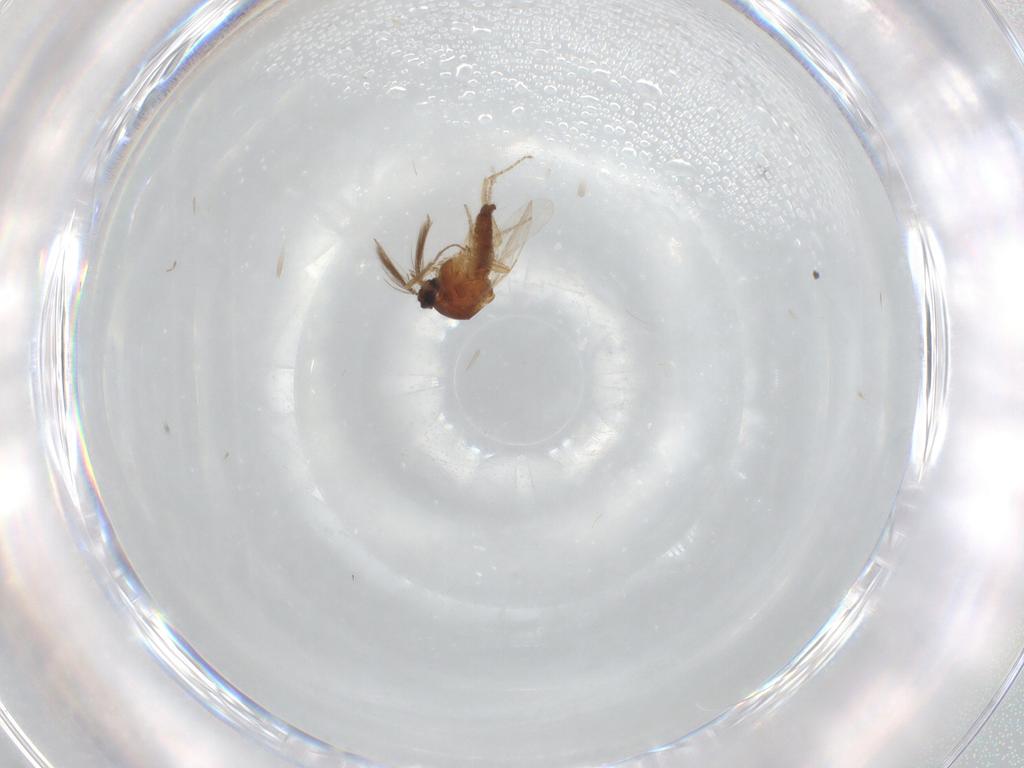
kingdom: Animalia
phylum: Arthropoda
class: Insecta
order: Diptera
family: Ceratopogonidae
